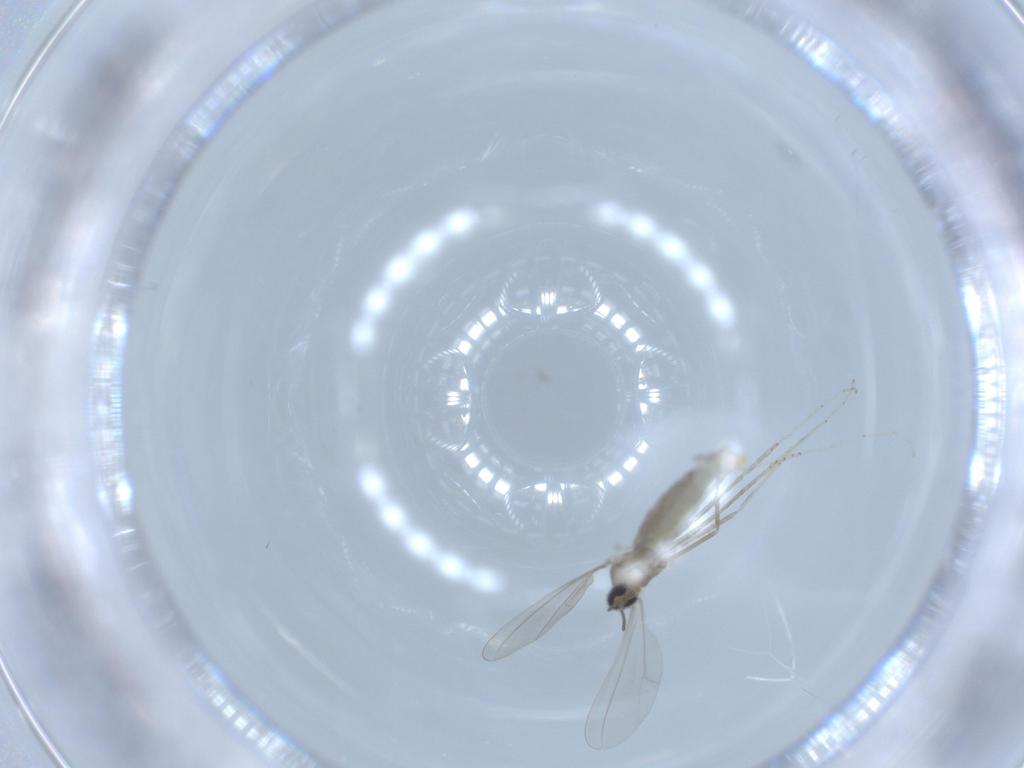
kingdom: Animalia
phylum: Arthropoda
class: Insecta
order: Diptera
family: Cecidomyiidae
